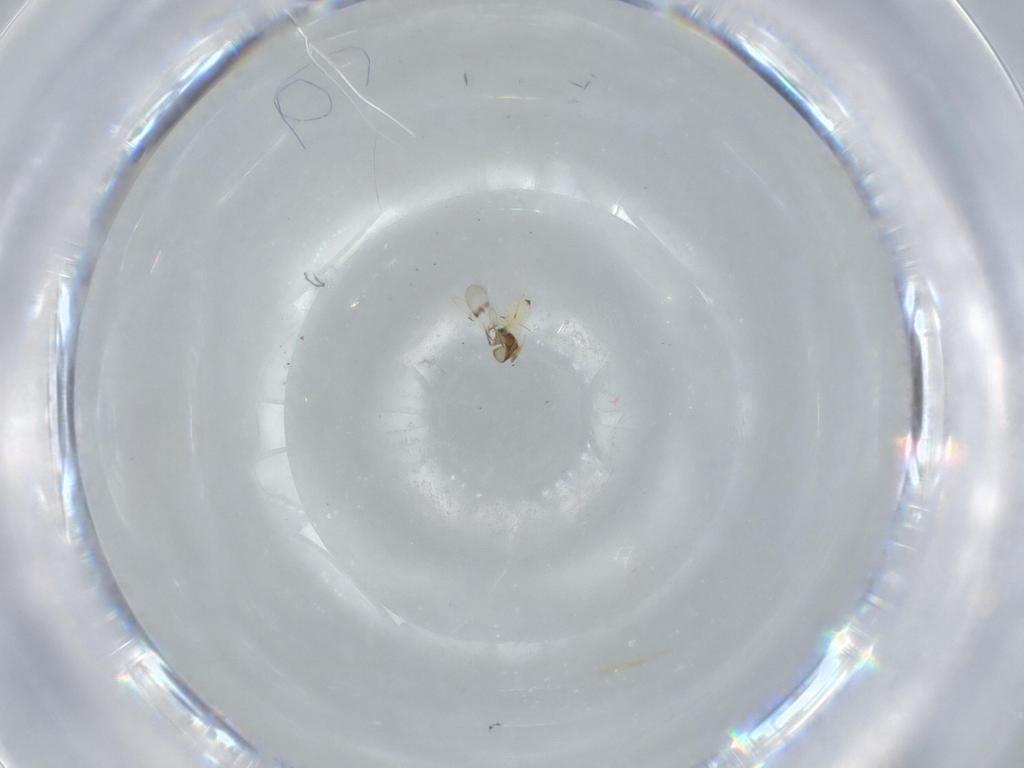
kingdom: Animalia
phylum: Arthropoda
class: Insecta
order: Hymenoptera
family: Scelionidae
